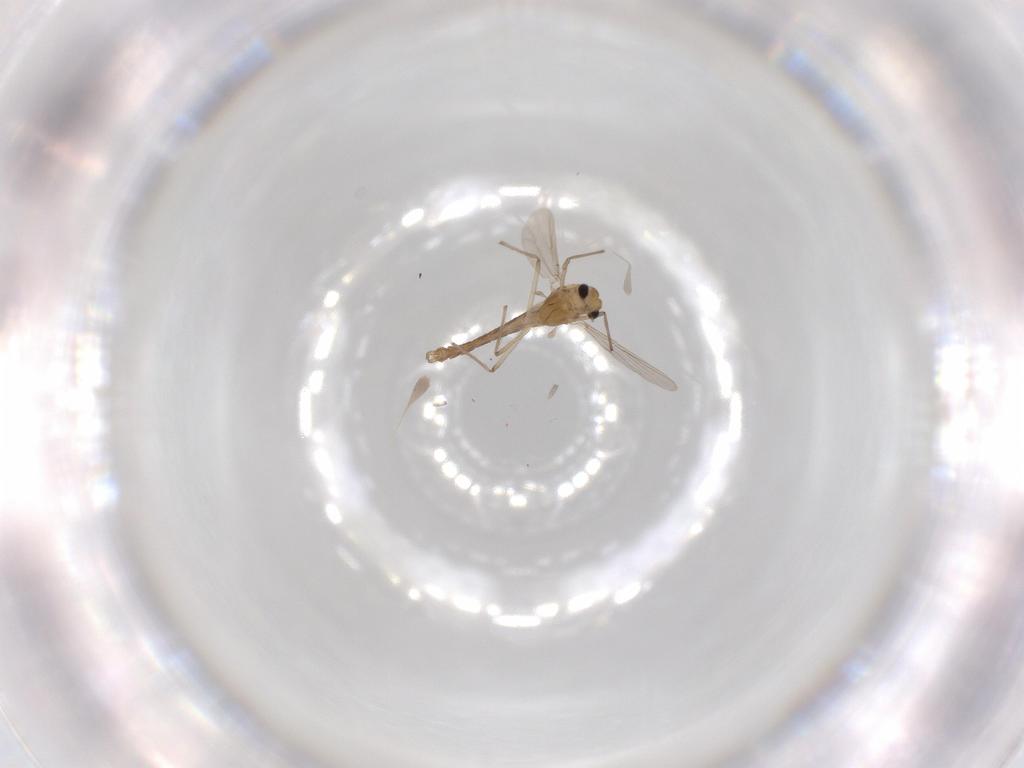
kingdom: Animalia
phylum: Arthropoda
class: Insecta
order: Diptera
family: Chironomidae
